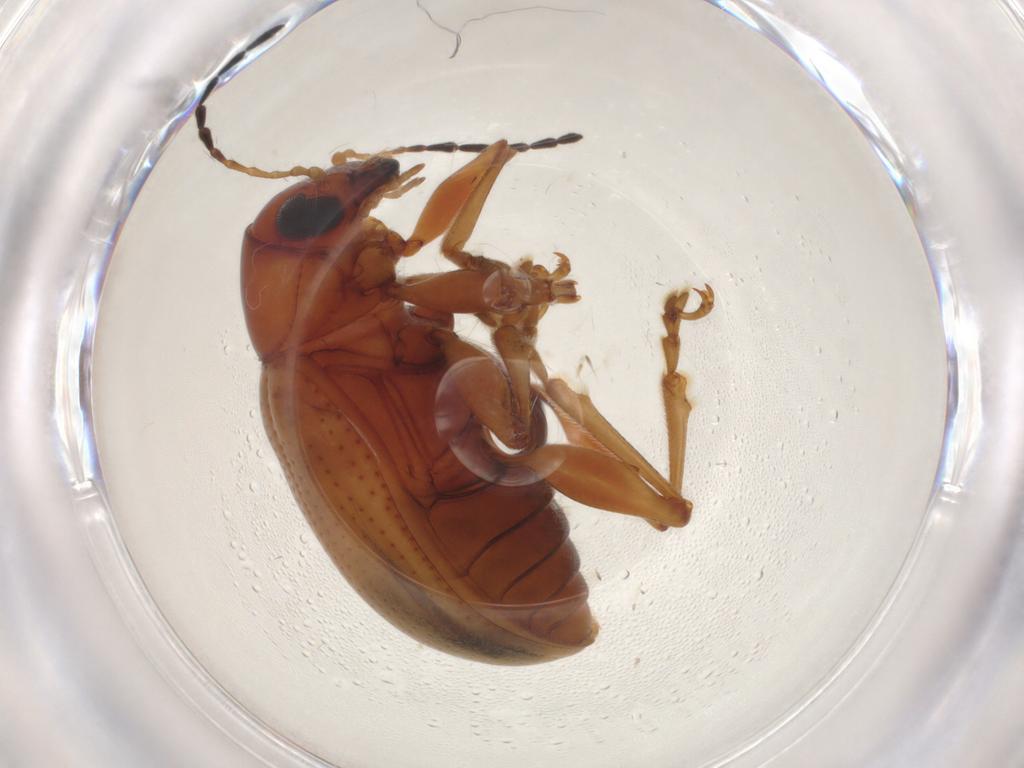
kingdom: Animalia
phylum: Arthropoda
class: Insecta
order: Coleoptera
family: Chrysomelidae
